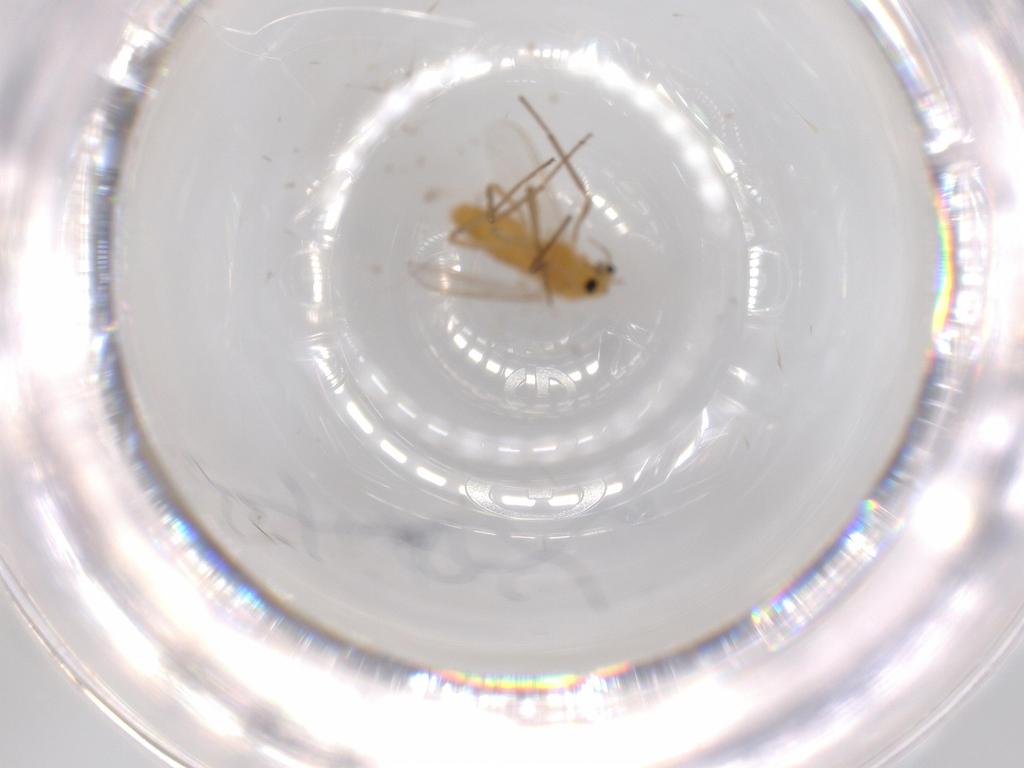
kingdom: Animalia
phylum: Arthropoda
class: Insecta
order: Diptera
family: Chironomidae
